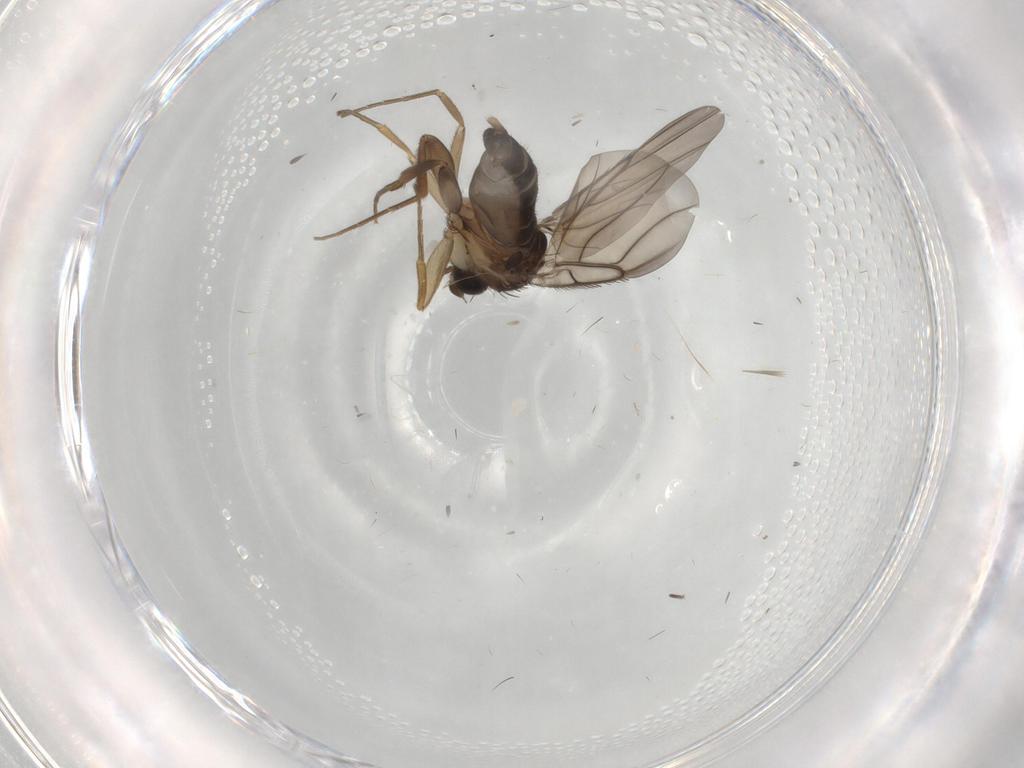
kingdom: Animalia
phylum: Arthropoda
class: Insecta
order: Diptera
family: Phoridae
